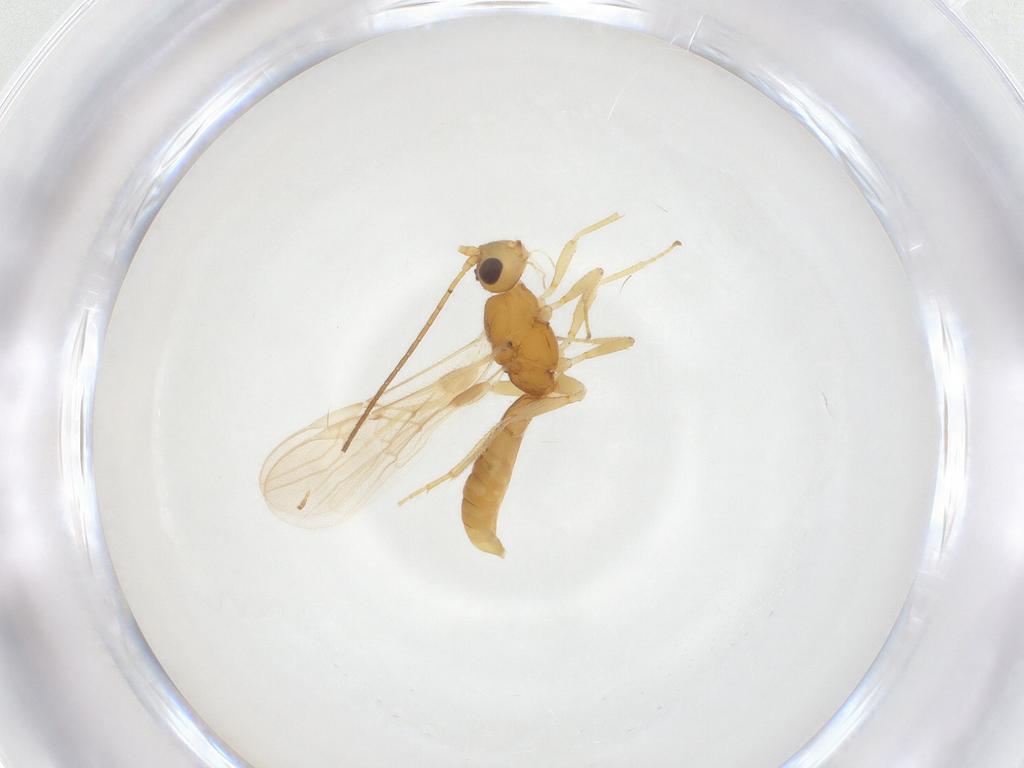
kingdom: Animalia
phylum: Arthropoda
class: Insecta
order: Hymenoptera
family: Braconidae
